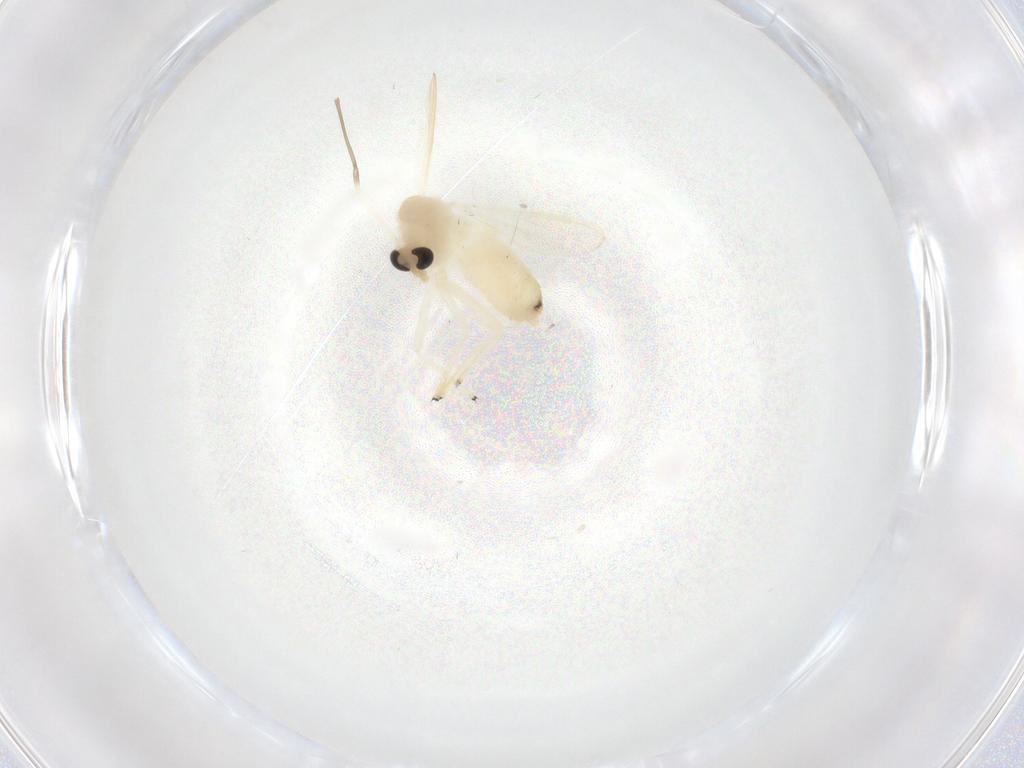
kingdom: Animalia
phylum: Arthropoda
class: Insecta
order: Diptera
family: Chironomidae
